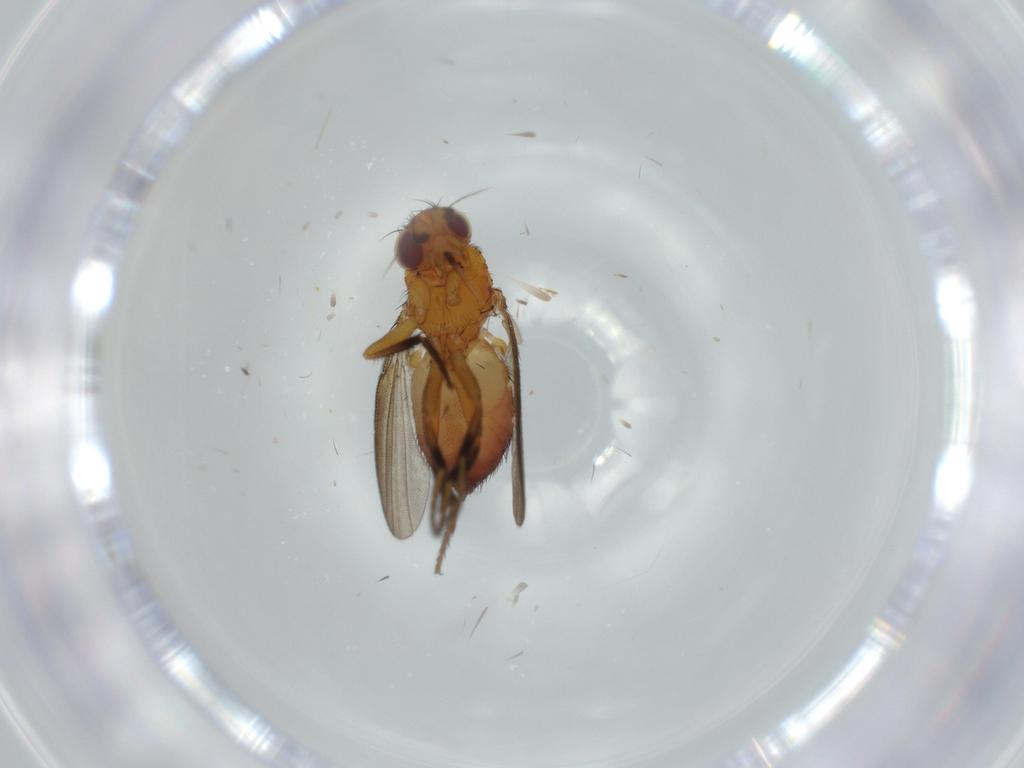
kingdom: Animalia
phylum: Arthropoda
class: Insecta
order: Diptera
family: Milichiidae
